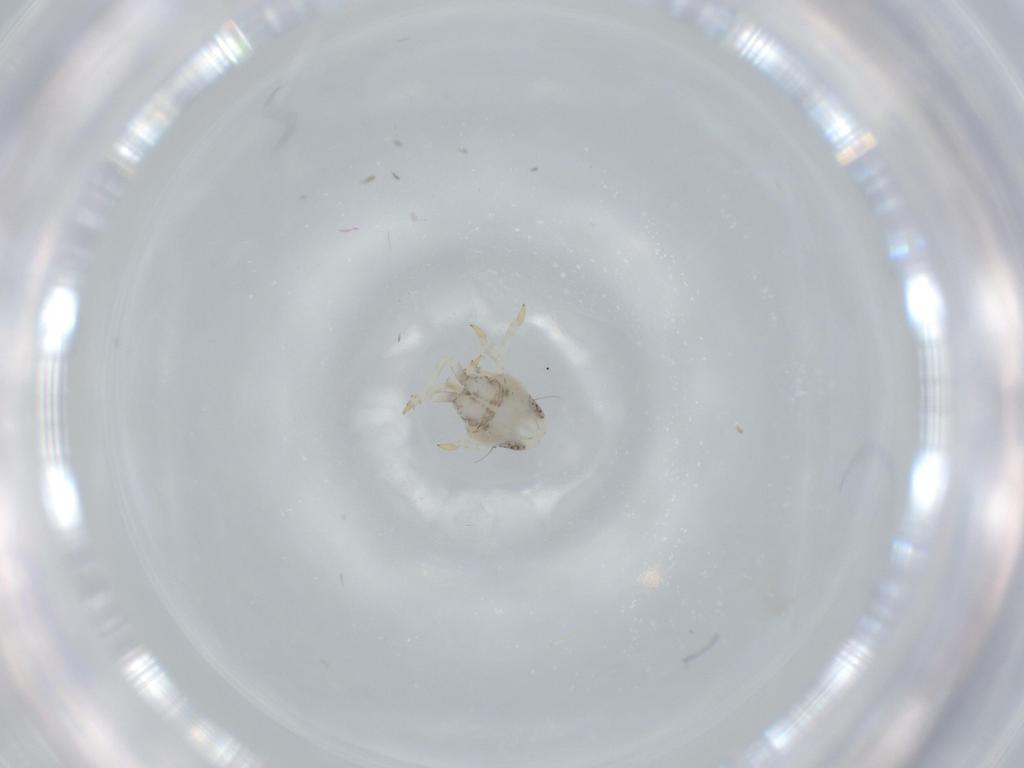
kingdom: Animalia
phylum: Arthropoda
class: Insecta
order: Hemiptera
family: Acanaloniidae
